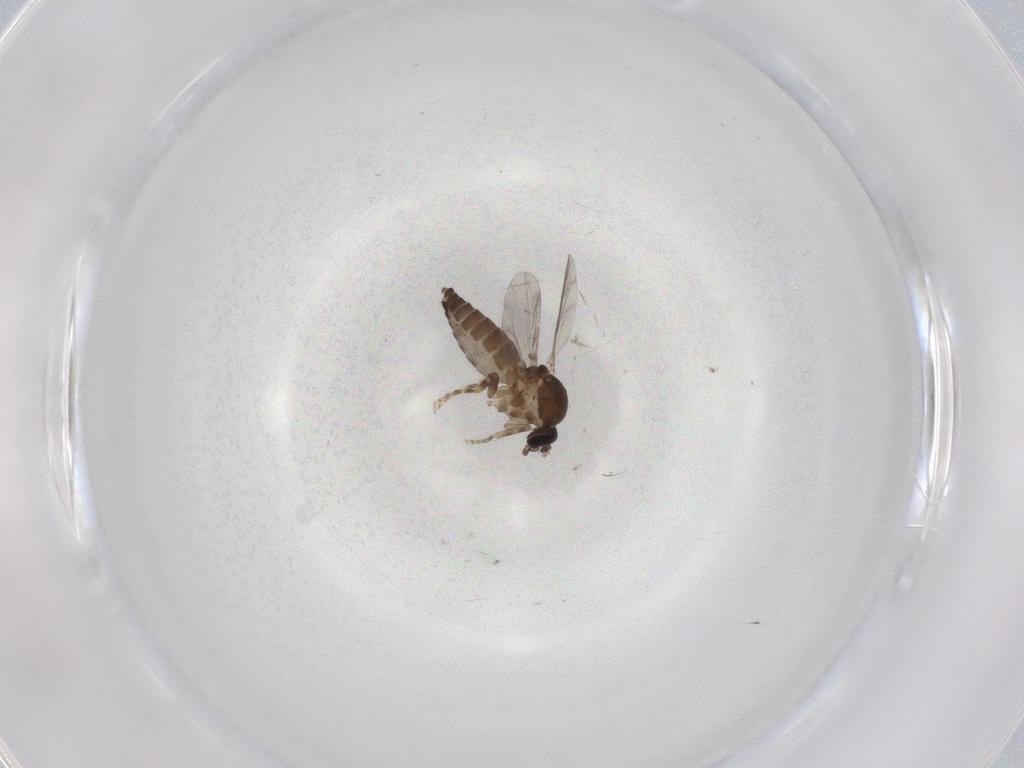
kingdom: Animalia
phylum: Arthropoda
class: Insecta
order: Diptera
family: Ceratopogonidae
